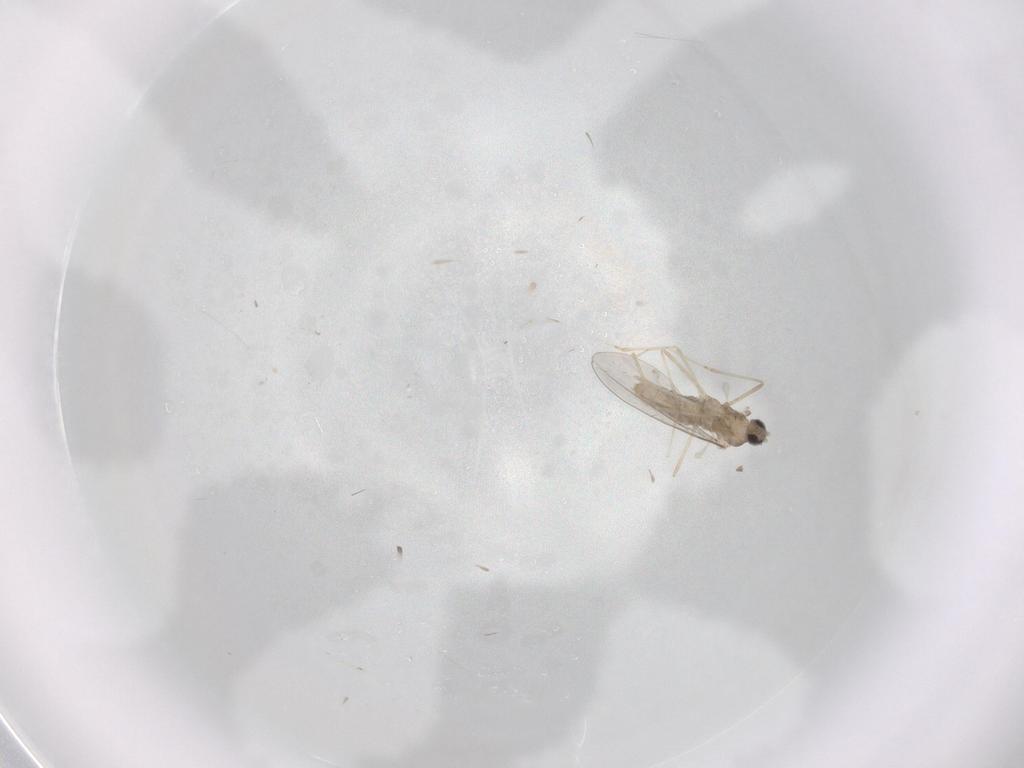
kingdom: Animalia
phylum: Arthropoda
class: Insecta
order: Diptera
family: Cecidomyiidae
